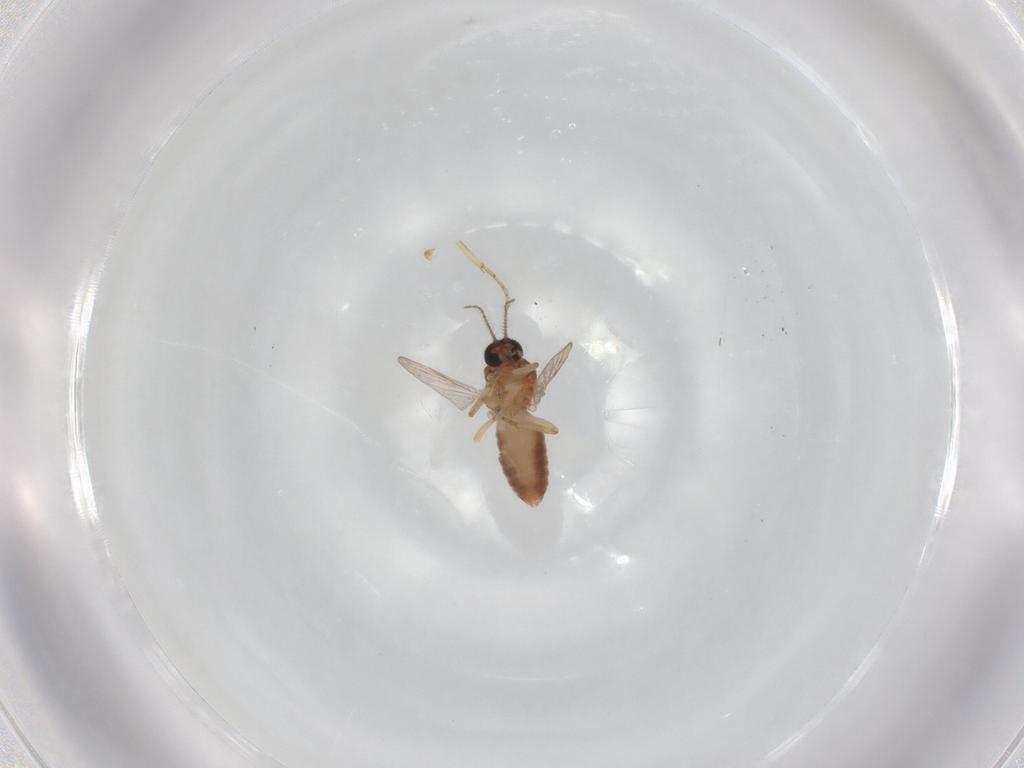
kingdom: Animalia
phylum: Arthropoda
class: Insecta
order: Diptera
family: Ceratopogonidae
